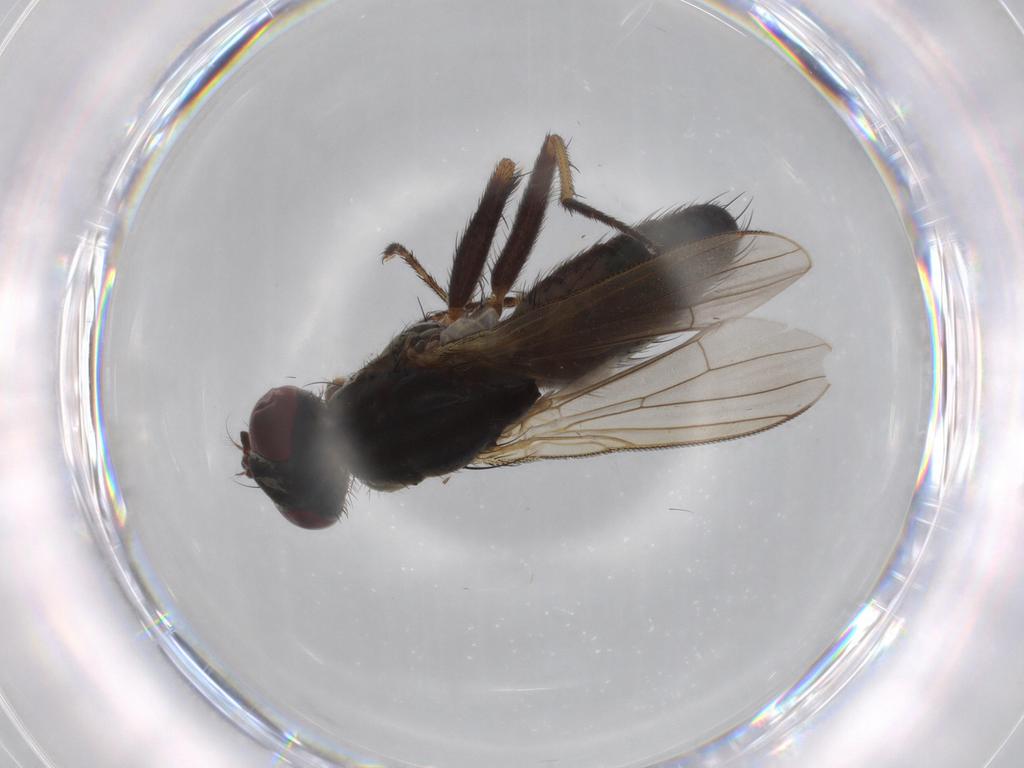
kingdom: Animalia
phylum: Arthropoda
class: Insecta
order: Diptera
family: Muscidae
